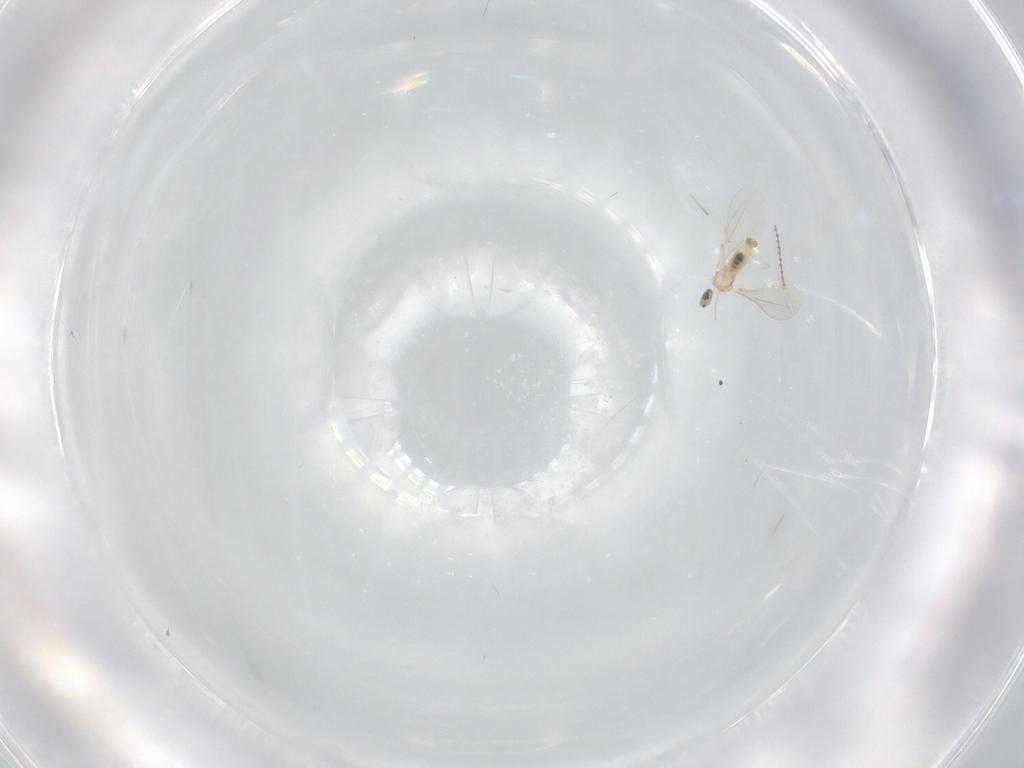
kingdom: Animalia
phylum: Arthropoda
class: Insecta
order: Diptera
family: Cecidomyiidae
